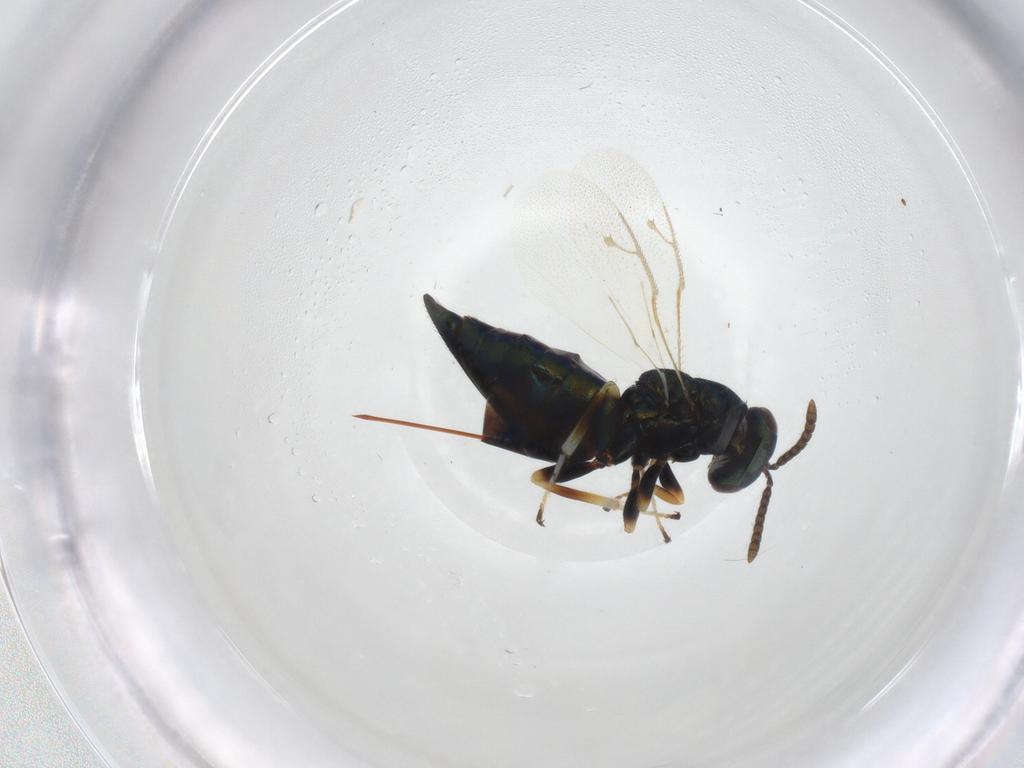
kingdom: Animalia
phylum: Arthropoda
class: Insecta
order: Hymenoptera
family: Pteromalidae
